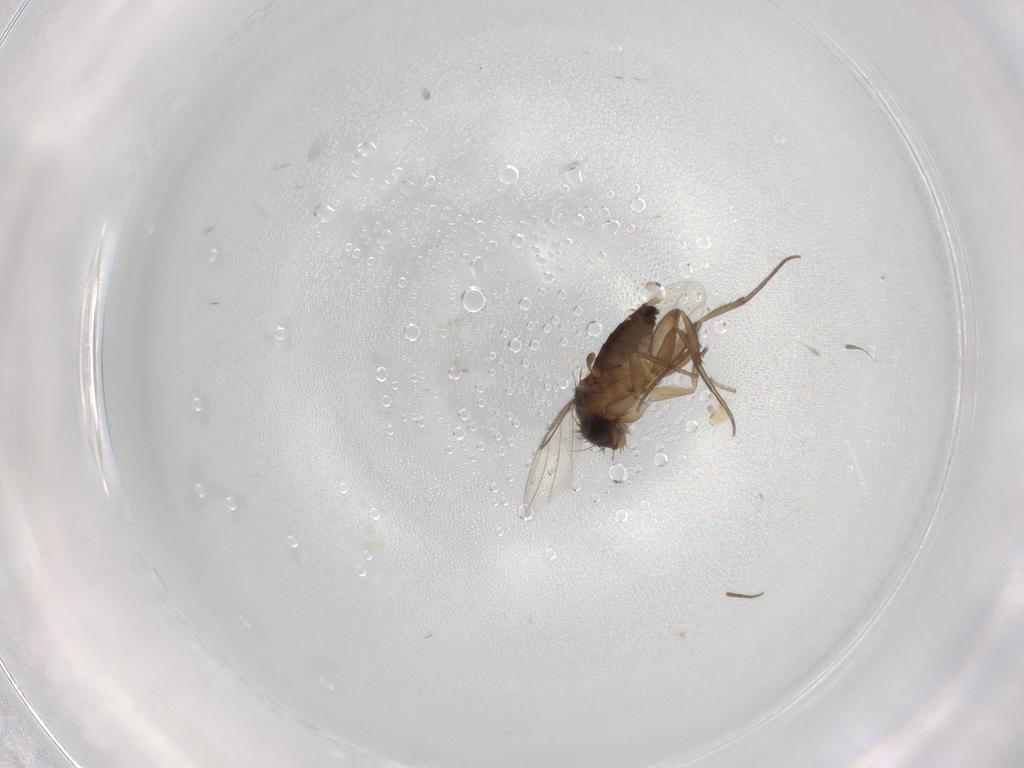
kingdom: Animalia
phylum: Arthropoda
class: Insecta
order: Diptera
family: Phoridae
